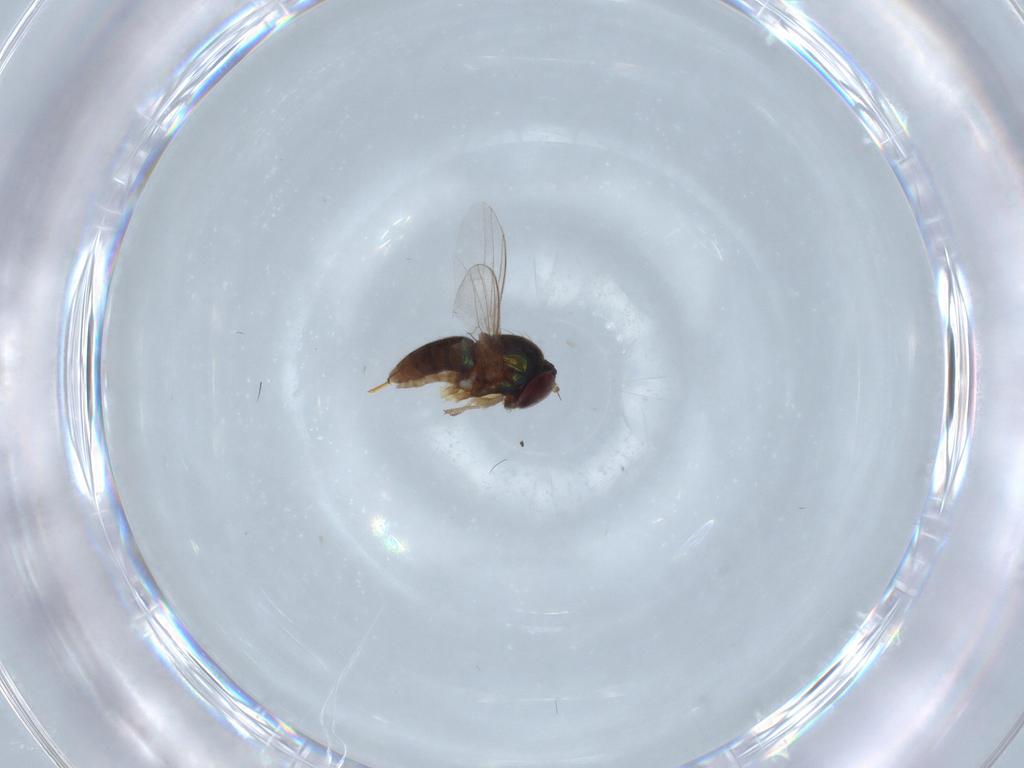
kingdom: Animalia
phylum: Arthropoda
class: Insecta
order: Diptera
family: Dolichopodidae
